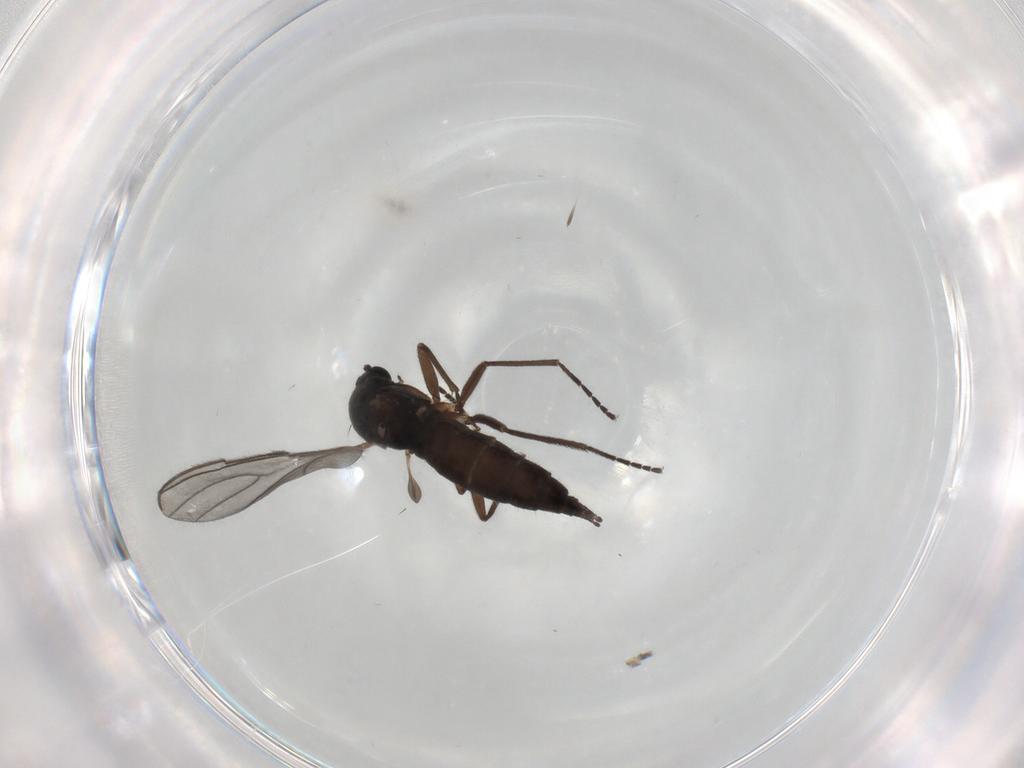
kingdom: Animalia
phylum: Arthropoda
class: Insecta
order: Diptera
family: Sciaridae
